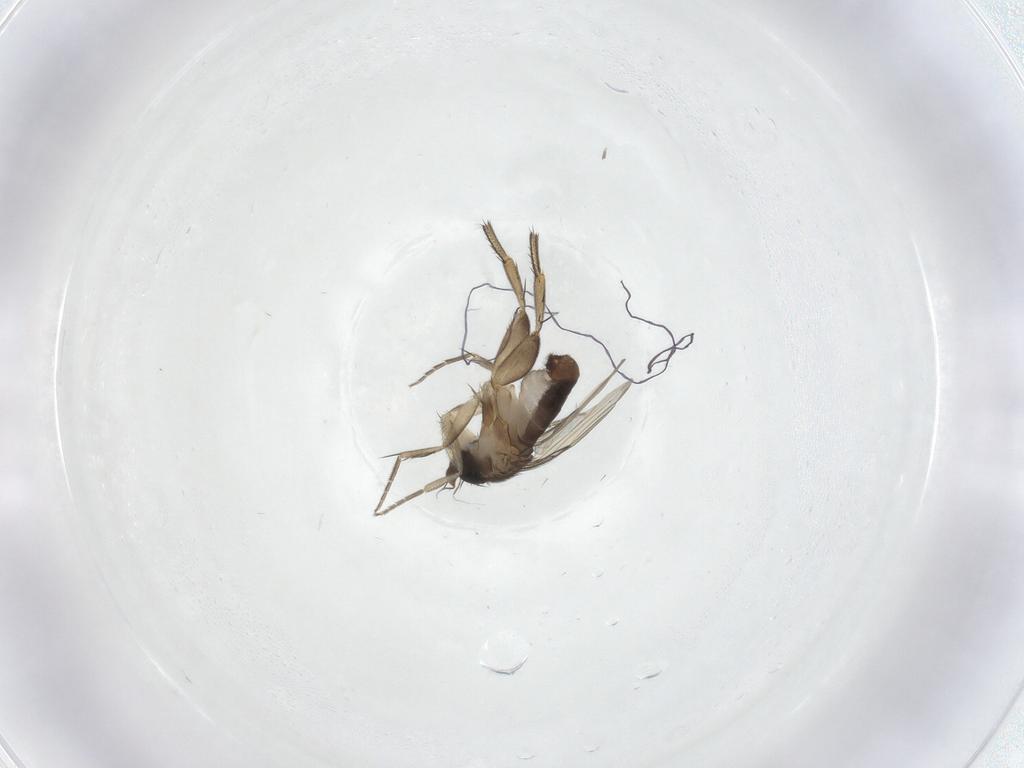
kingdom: Animalia
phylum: Arthropoda
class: Insecta
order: Diptera
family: Phoridae
